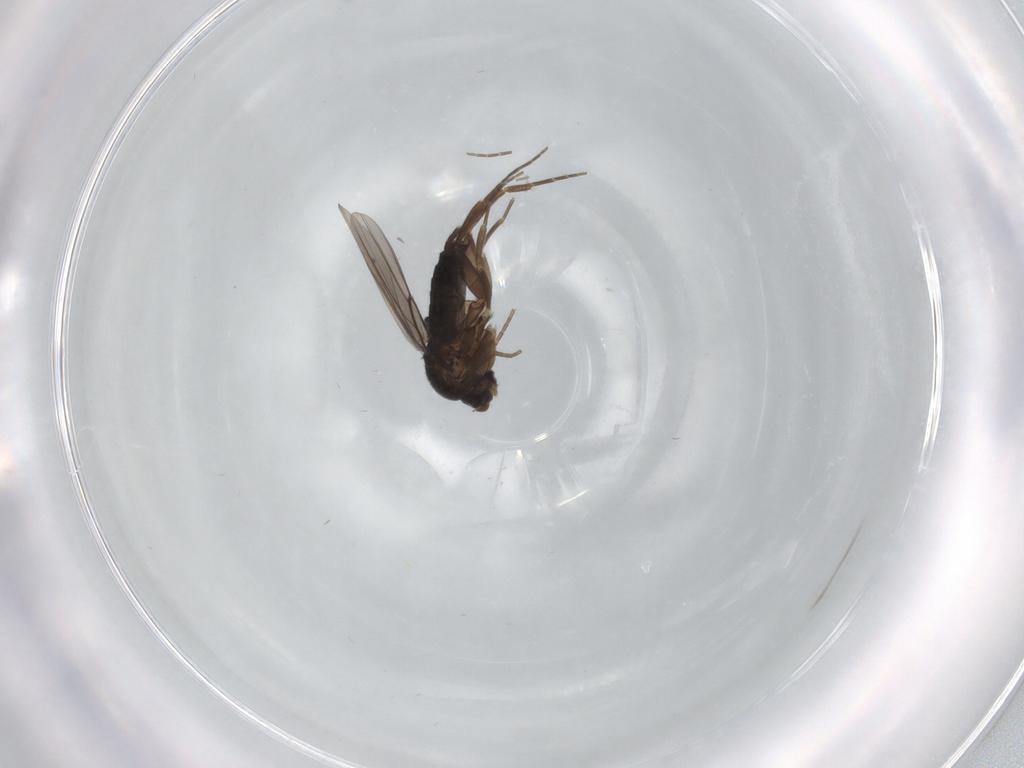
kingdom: Animalia
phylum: Arthropoda
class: Insecta
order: Diptera
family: Phoridae
